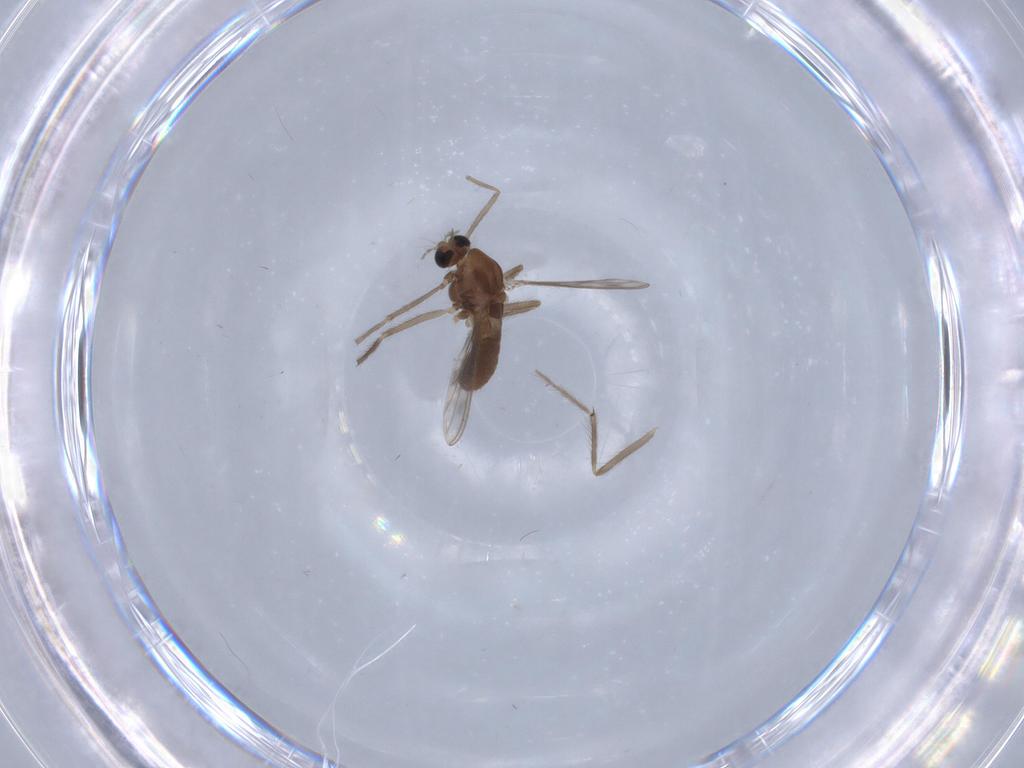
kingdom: Animalia
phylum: Arthropoda
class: Insecta
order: Diptera
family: Chironomidae
